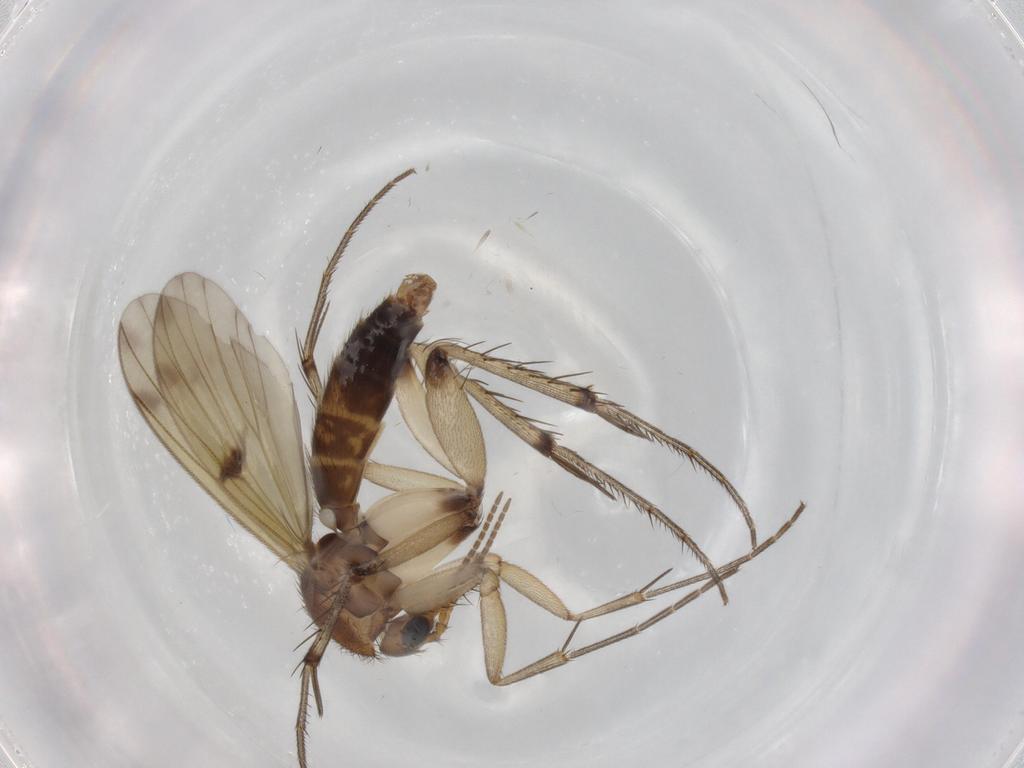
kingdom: Animalia
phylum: Arthropoda
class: Insecta
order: Diptera
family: Mycetophilidae
